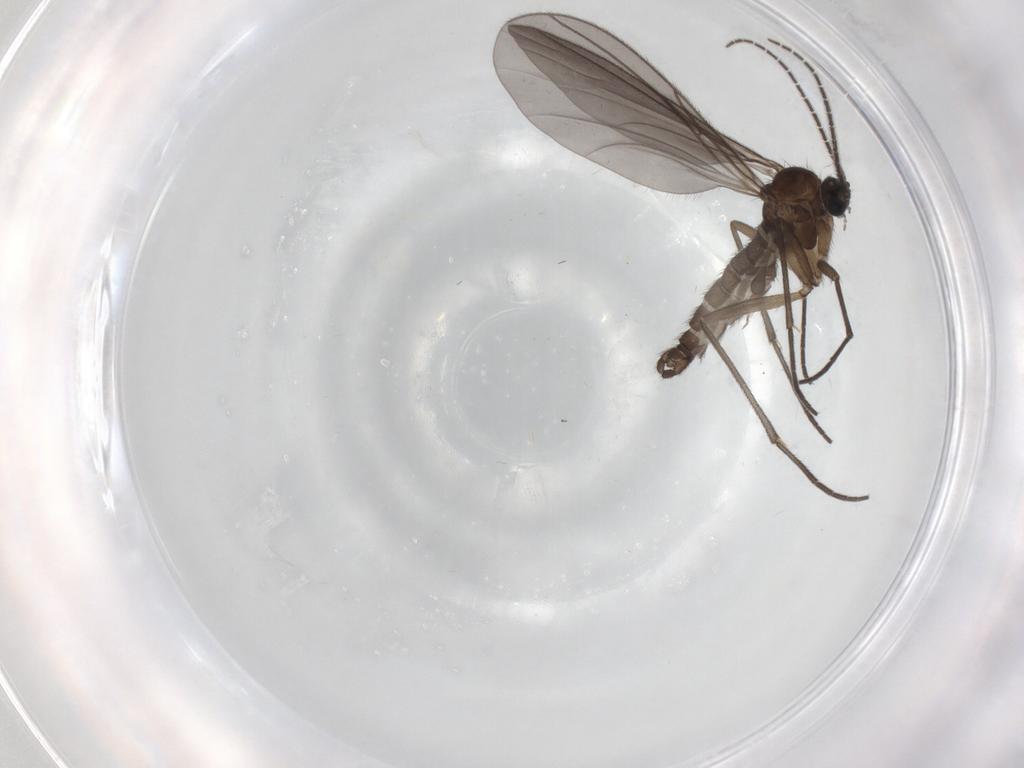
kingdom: Animalia
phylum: Arthropoda
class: Insecta
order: Diptera
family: Sciaridae
